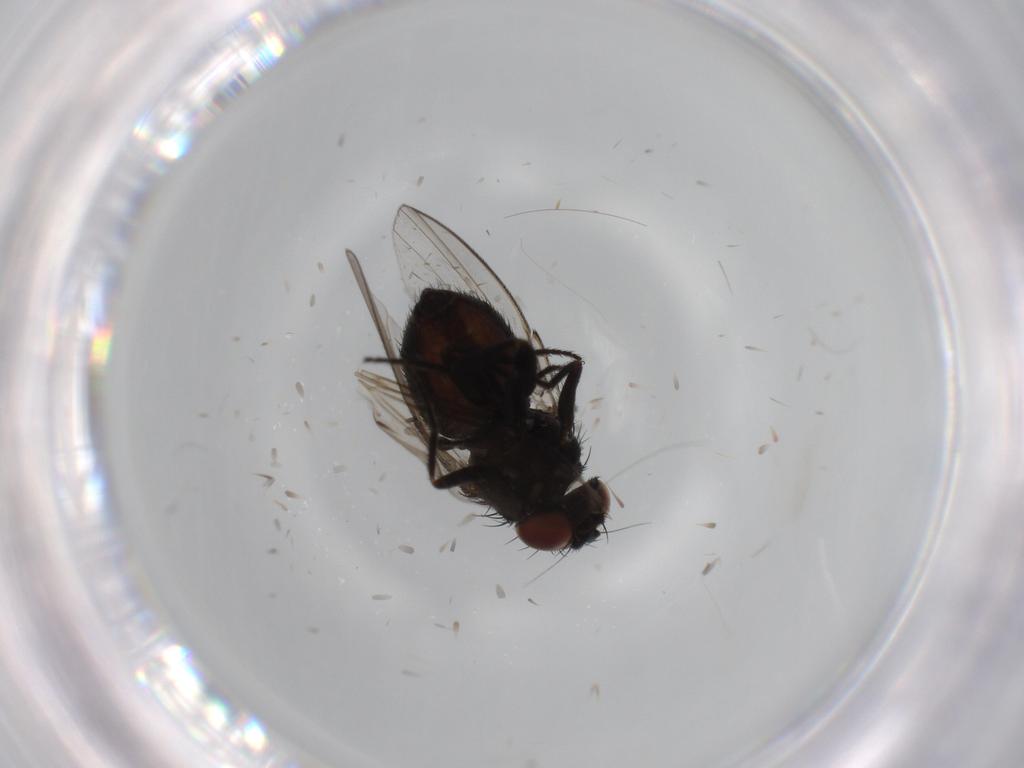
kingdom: Animalia
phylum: Arthropoda
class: Insecta
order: Diptera
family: Milichiidae
